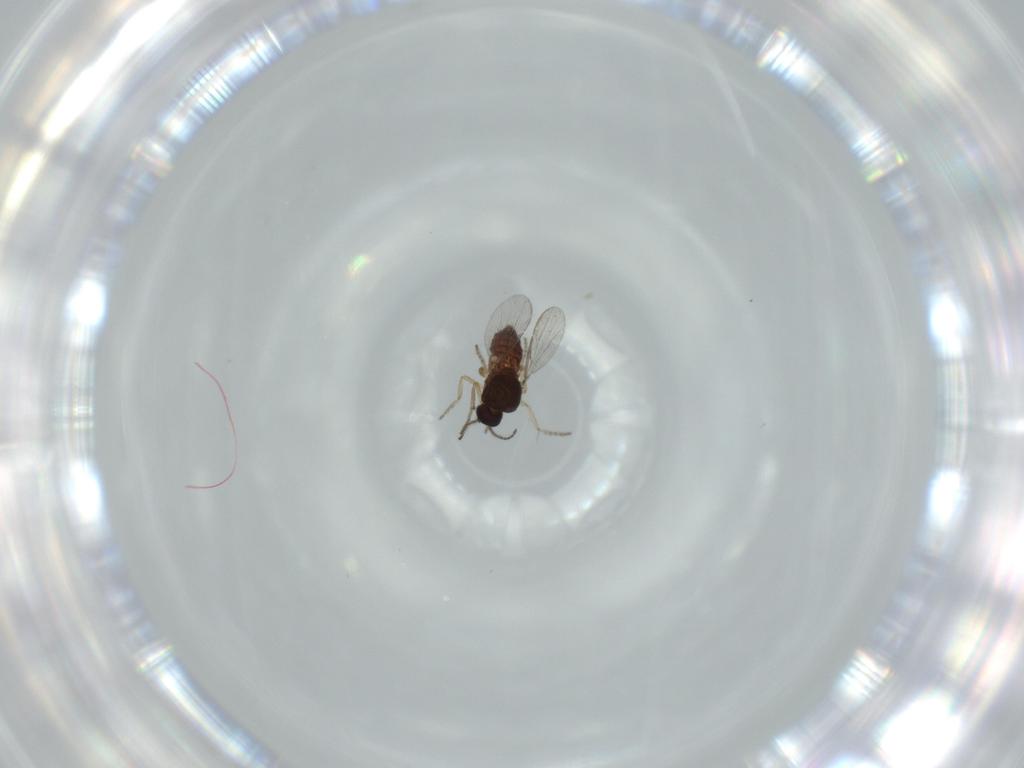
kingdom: Animalia
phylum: Arthropoda
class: Insecta
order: Diptera
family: Ceratopogonidae
